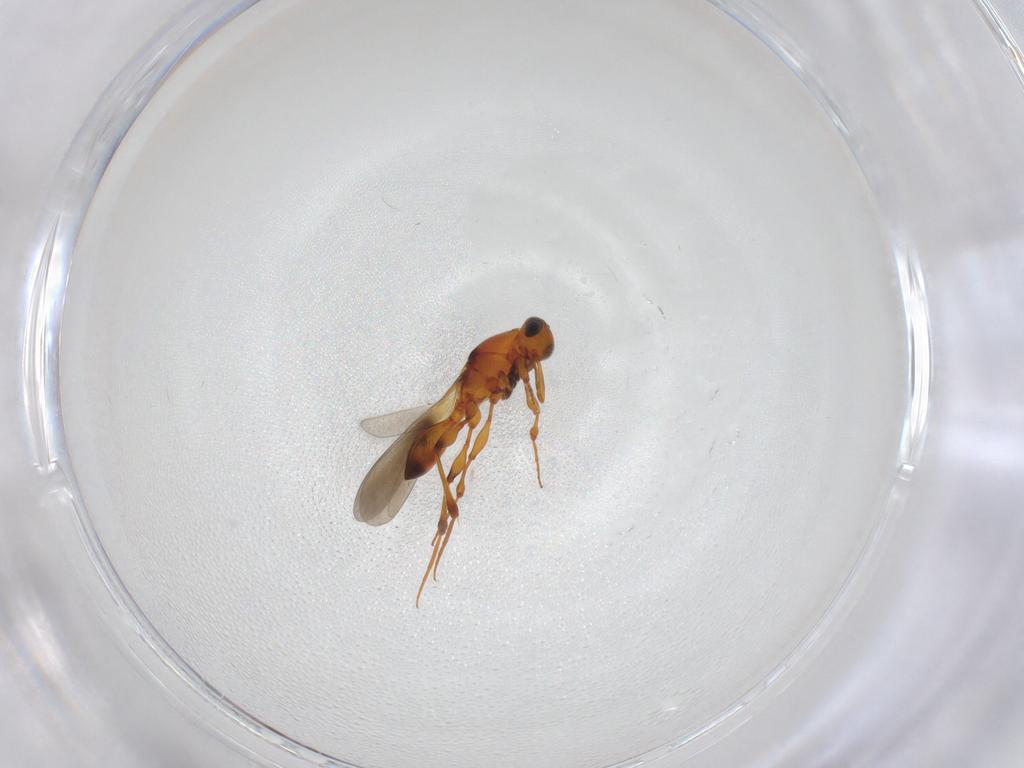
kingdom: Animalia
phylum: Arthropoda
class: Insecta
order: Hymenoptera
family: Platygastridae
